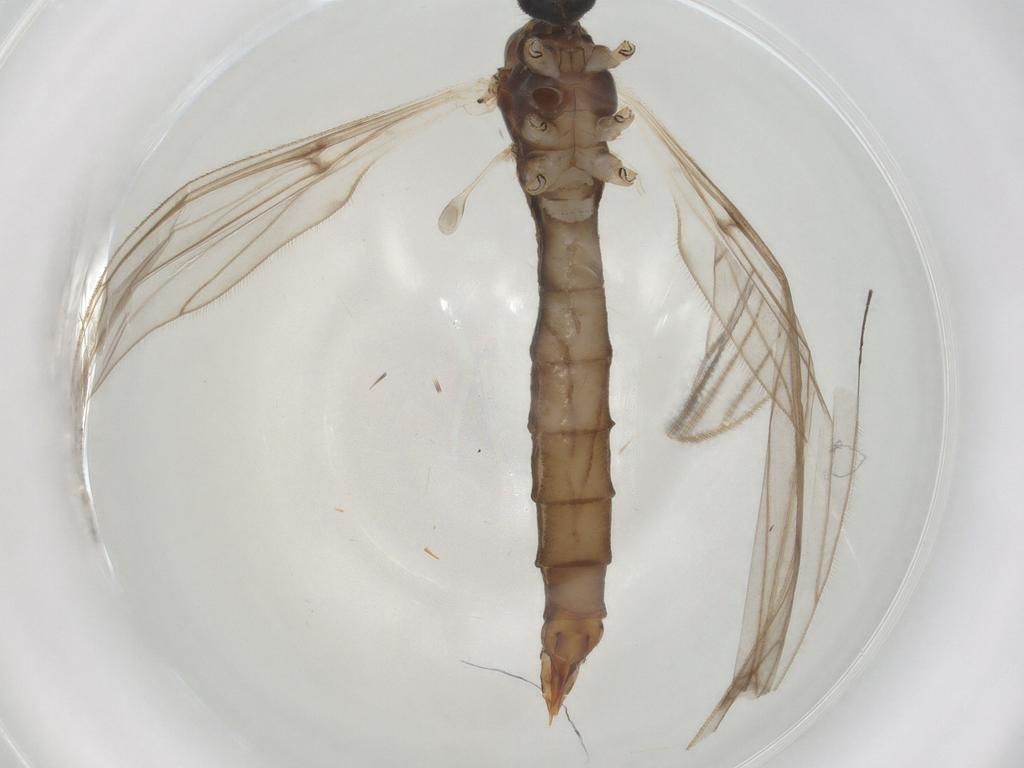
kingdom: Animalia
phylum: Arthropoda
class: Insecta
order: Diptera
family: Limoniidae
